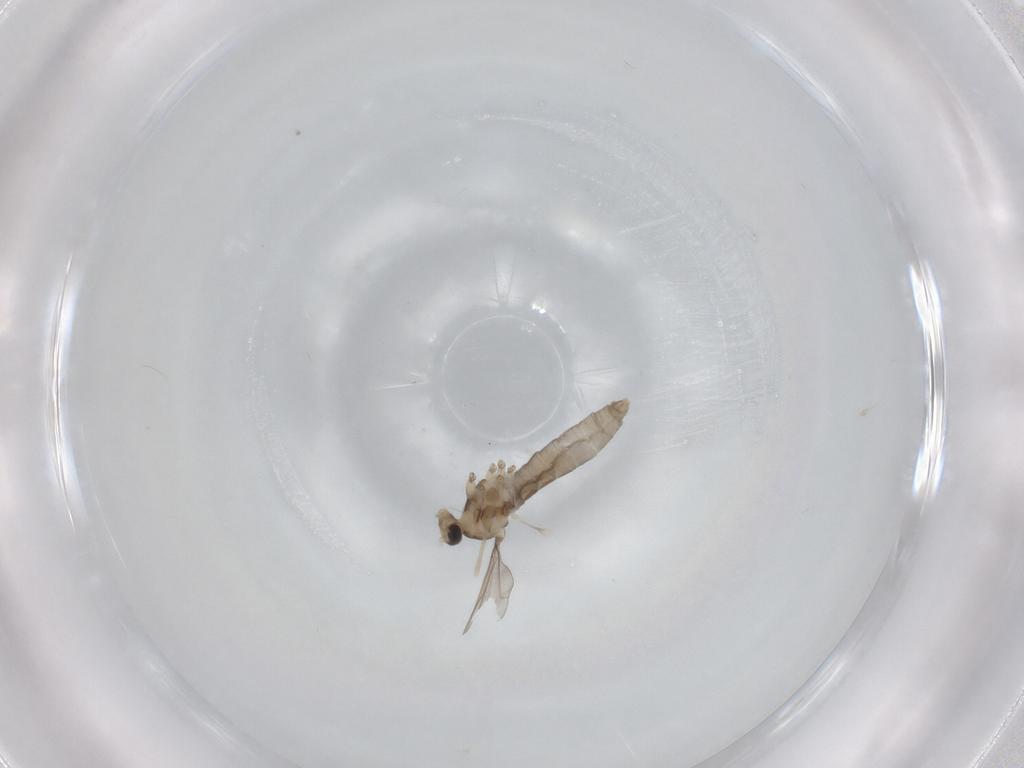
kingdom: Animalia
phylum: Arthropoda
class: Insecta
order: Diptera
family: Cecidomyiidae
